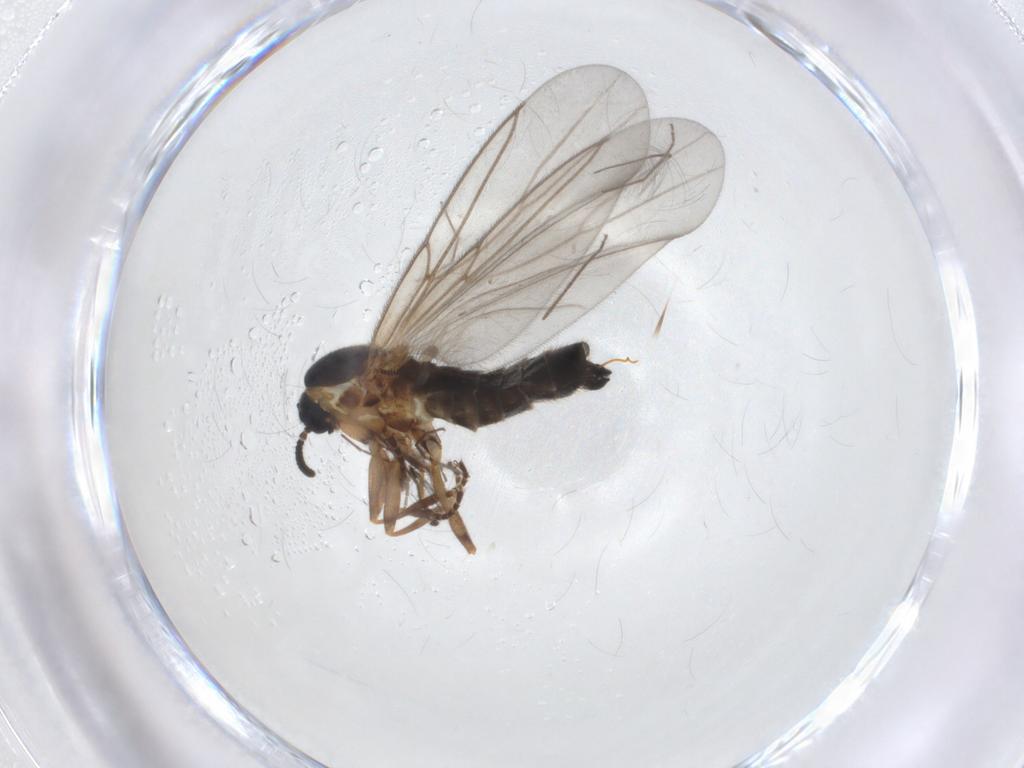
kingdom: Animalia
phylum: Arthropoda
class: Insecta
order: Diptera
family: Scatopsidae
